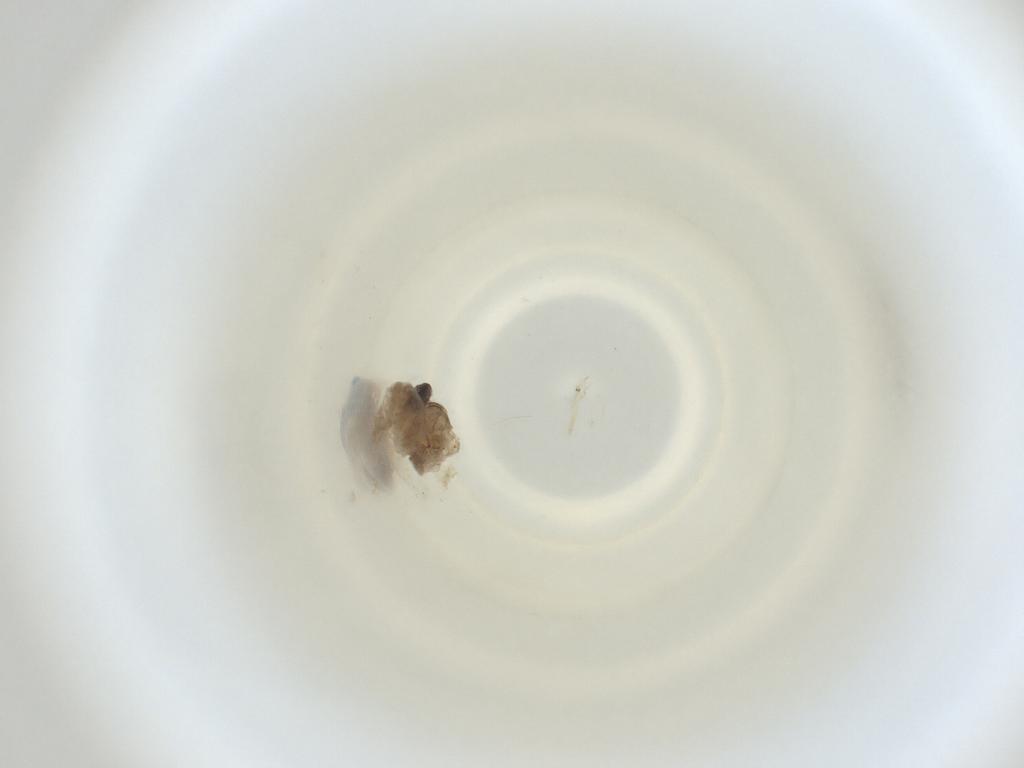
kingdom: Animalia
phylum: Arthropoda
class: Insecta
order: Diptera
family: Cecidomyiidae
